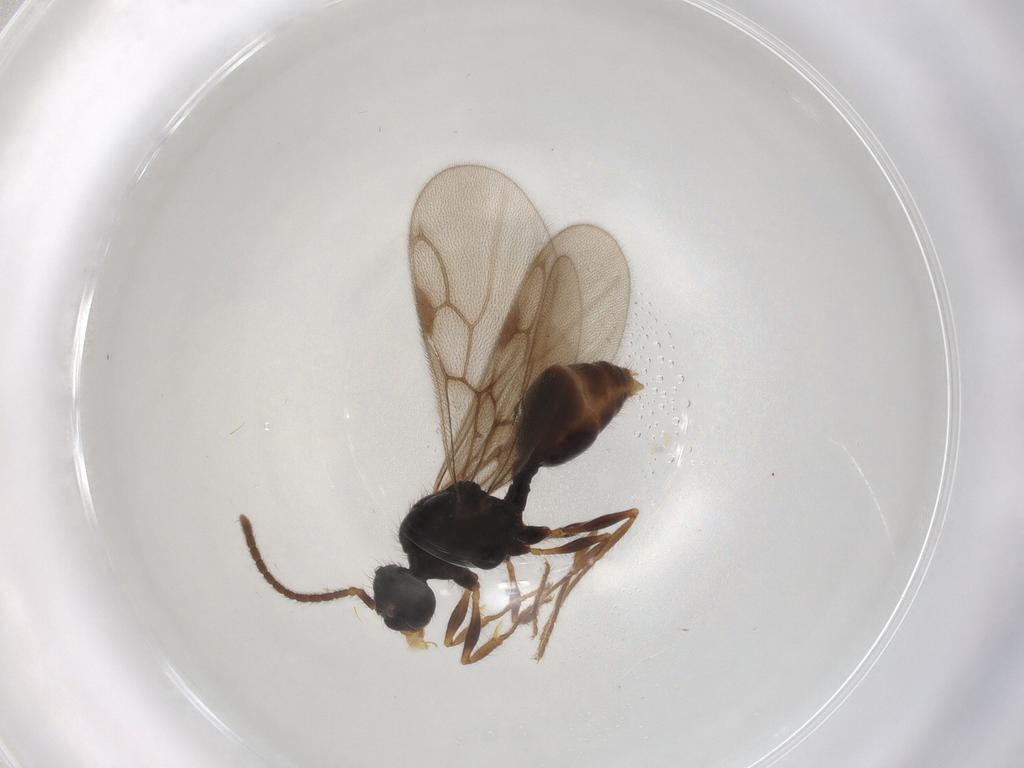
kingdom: Animalia
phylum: Arthropoda
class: Insecta
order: Hymenoptera
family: Formicidae
